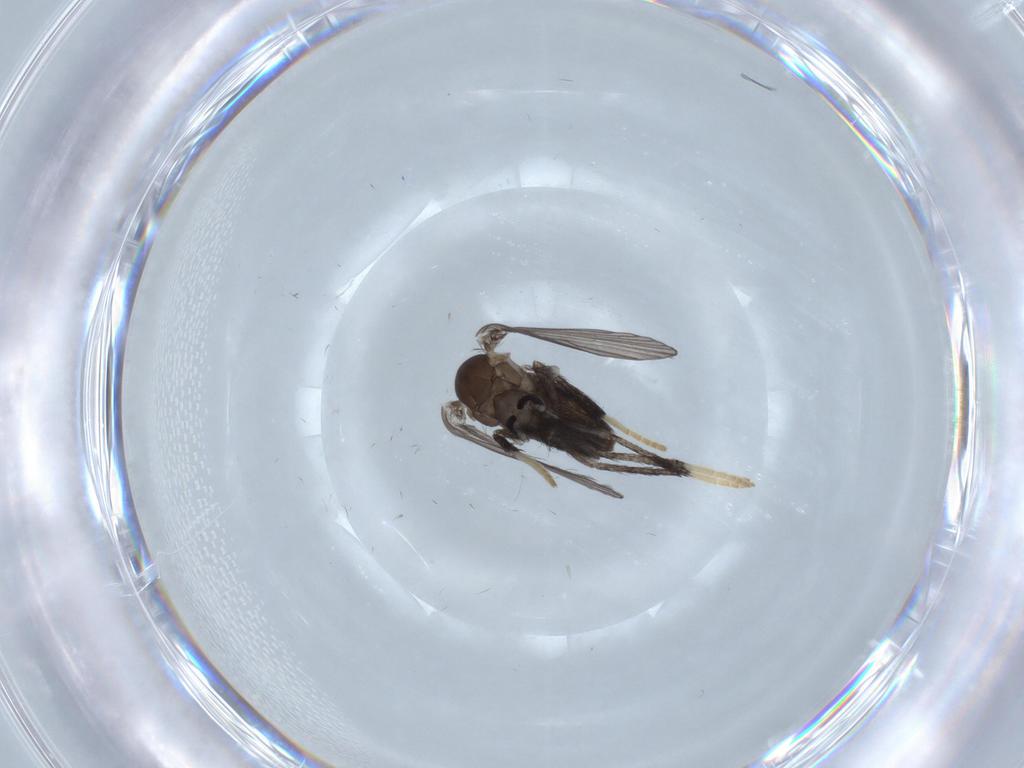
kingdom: Animalia
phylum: Arthropoda
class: Insecta
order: Diptera
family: Psychodidae
